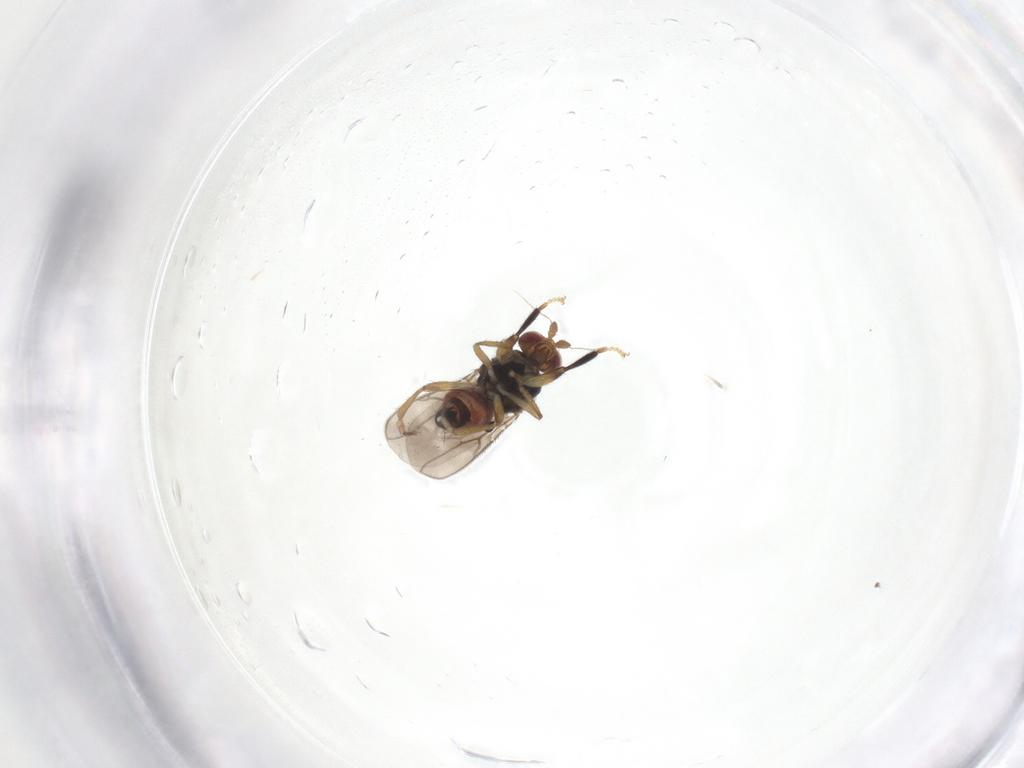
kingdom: Animalia
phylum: Arthropoda
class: Insecta
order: Diptera
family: Sphaeroceridae
